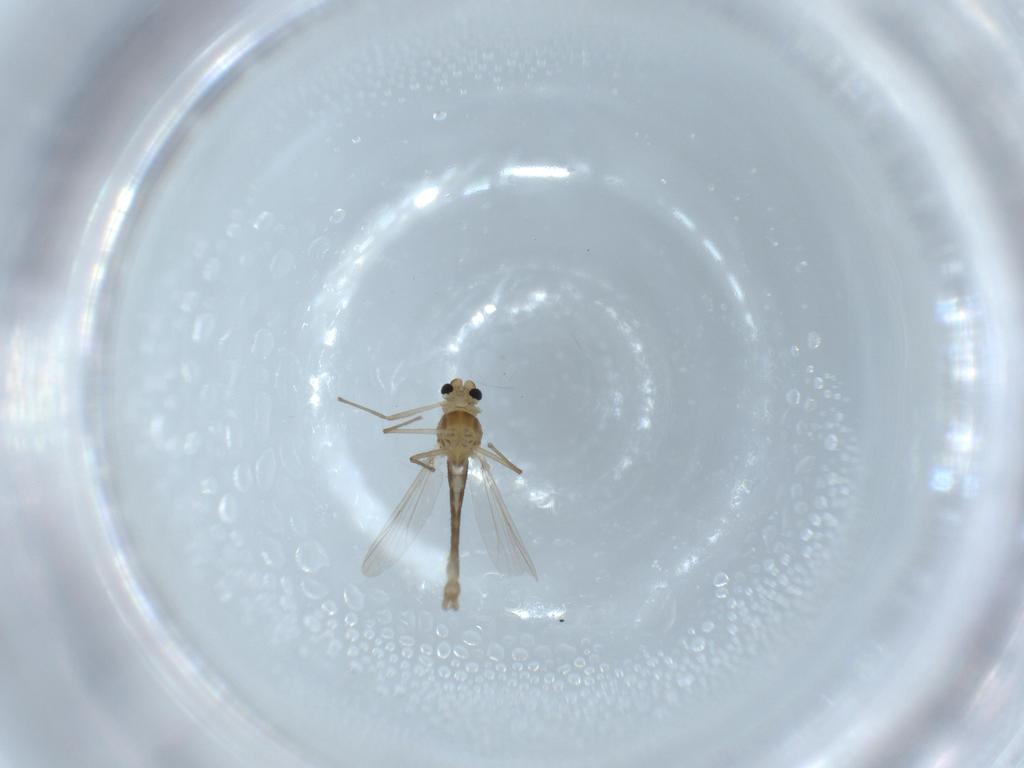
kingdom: Animalia
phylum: Arthropoda
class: Insecta
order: Diptera
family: Chironomidae
